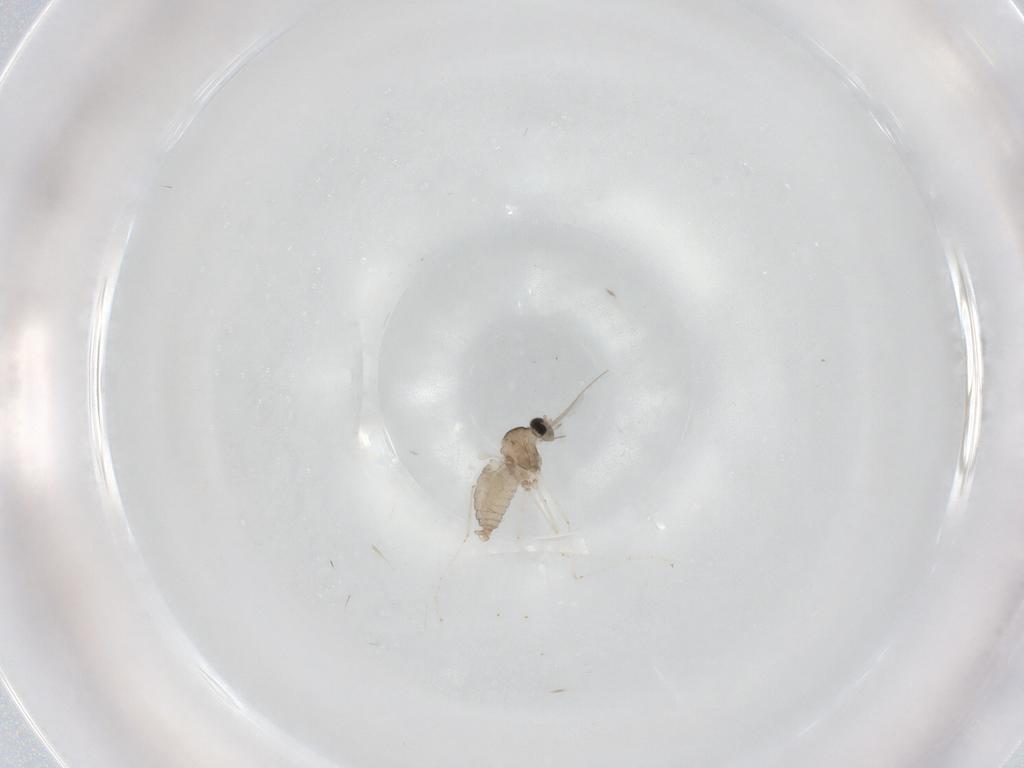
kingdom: Animalia
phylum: Arthropoda
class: Insecta
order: Diptera
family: Cecidomyiidae
